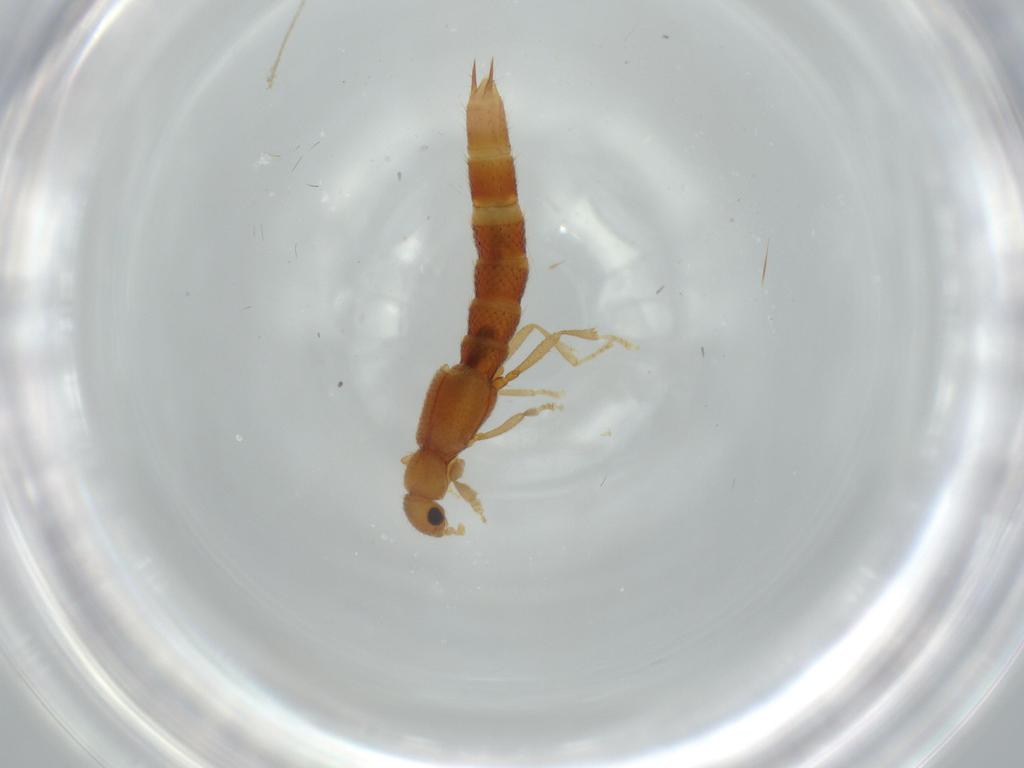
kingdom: Animalia
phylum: Arthropoda
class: Insecta
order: Coleoptera
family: Staphylinidae
